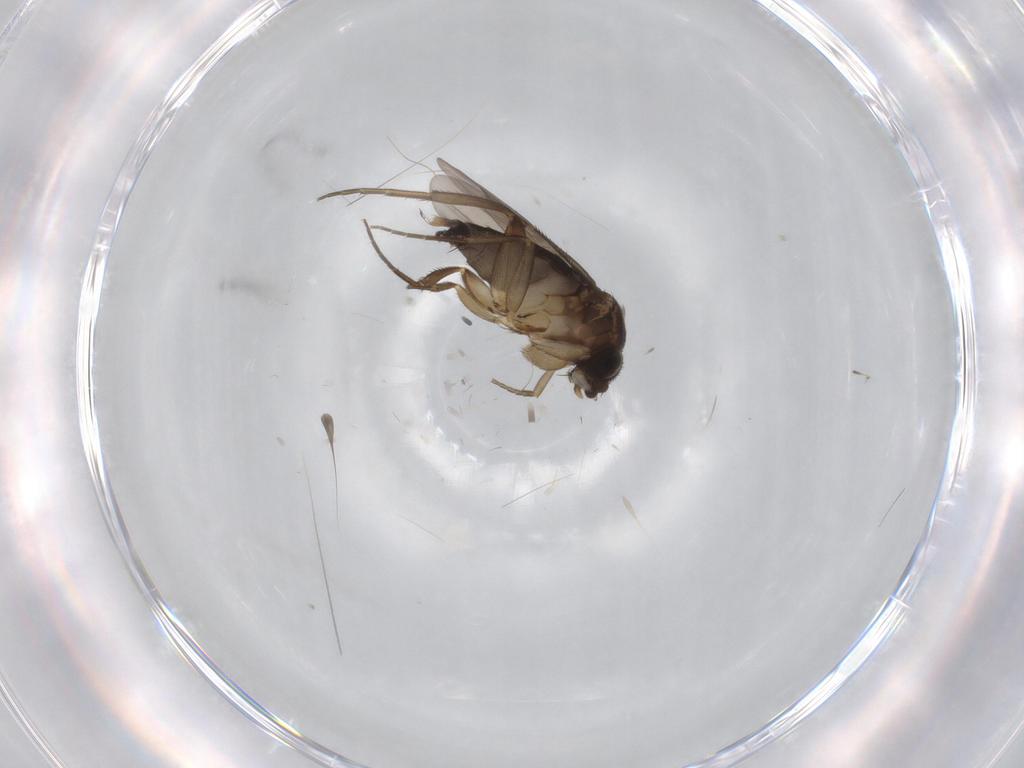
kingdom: Animalia
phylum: Arthropoda
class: Insecta
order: Diptera
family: Phoridae
